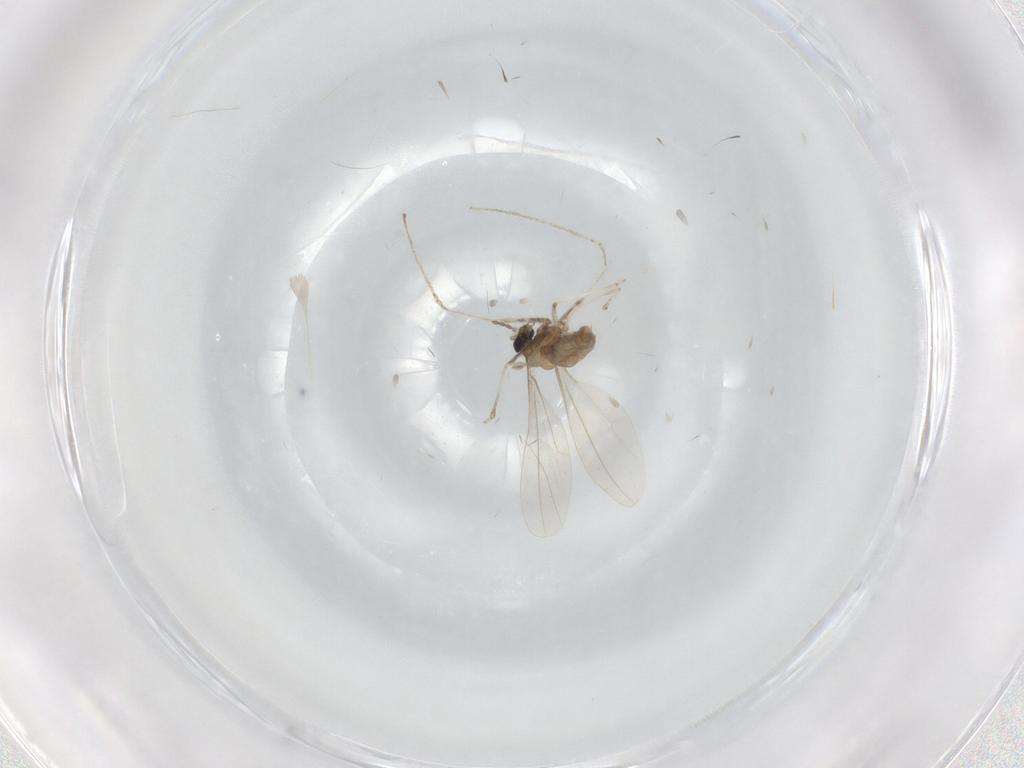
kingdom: Animalia
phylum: Arthropoda
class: Insecta
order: Diptera
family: Cecidomyiidae
